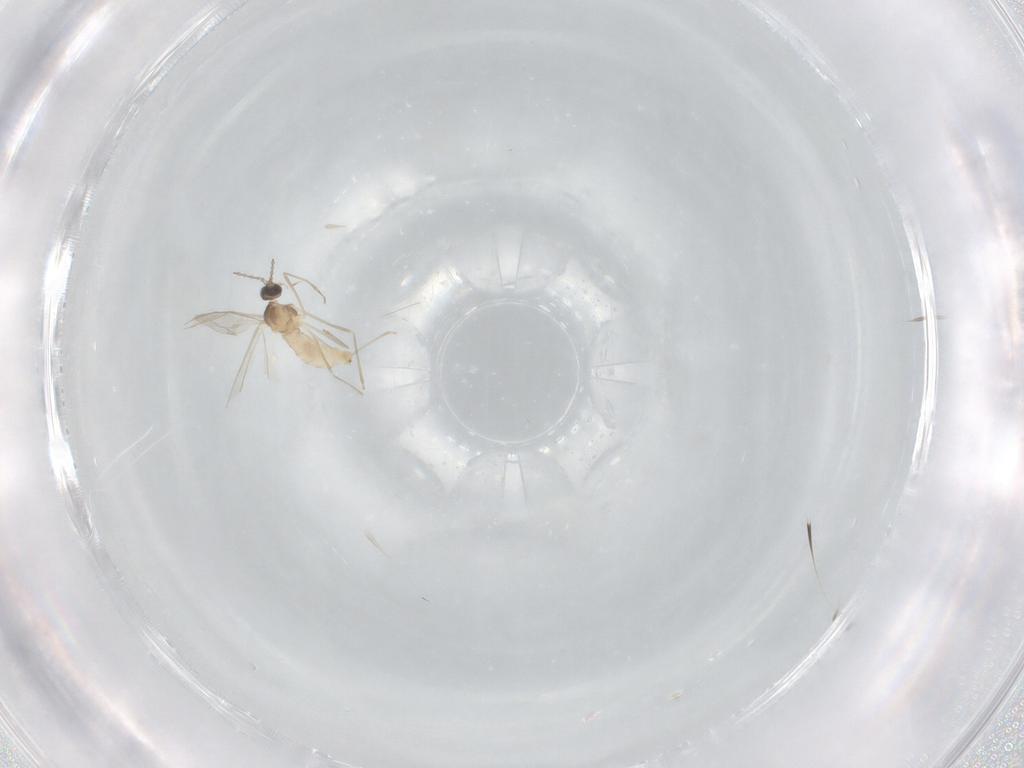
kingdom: Animalia
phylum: Arthropoda
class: Insecta
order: Diptera
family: Cecidomyiidae
